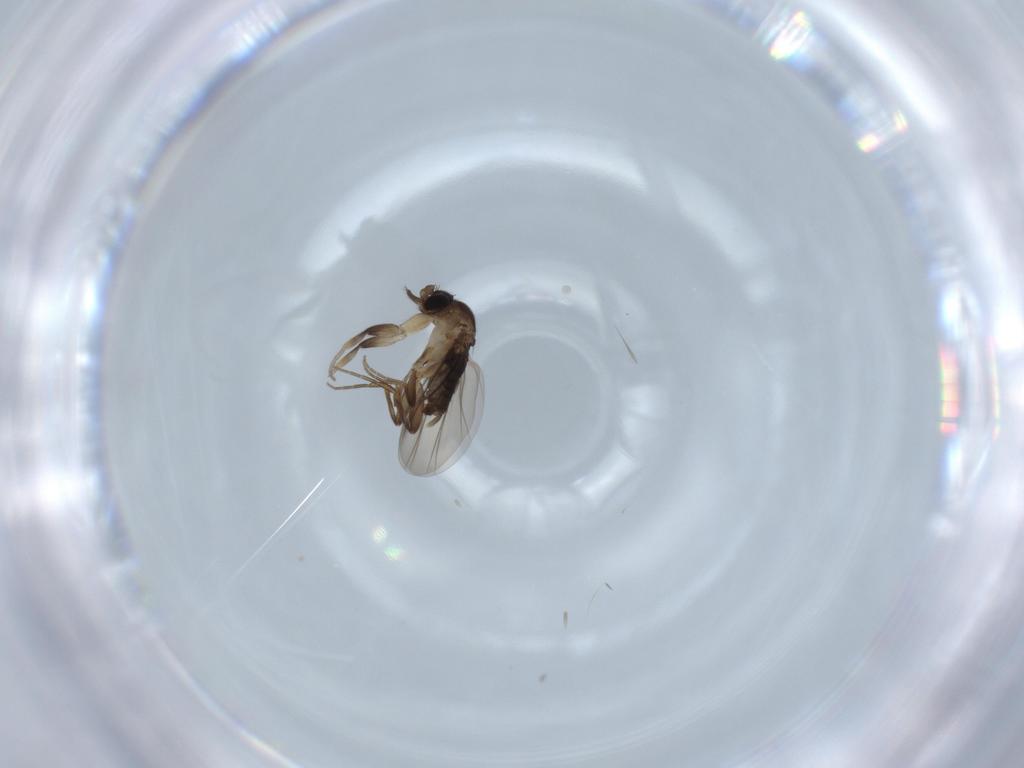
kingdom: Animalia
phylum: Arthropoda
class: Insecta
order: Diptera
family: Phoridae
